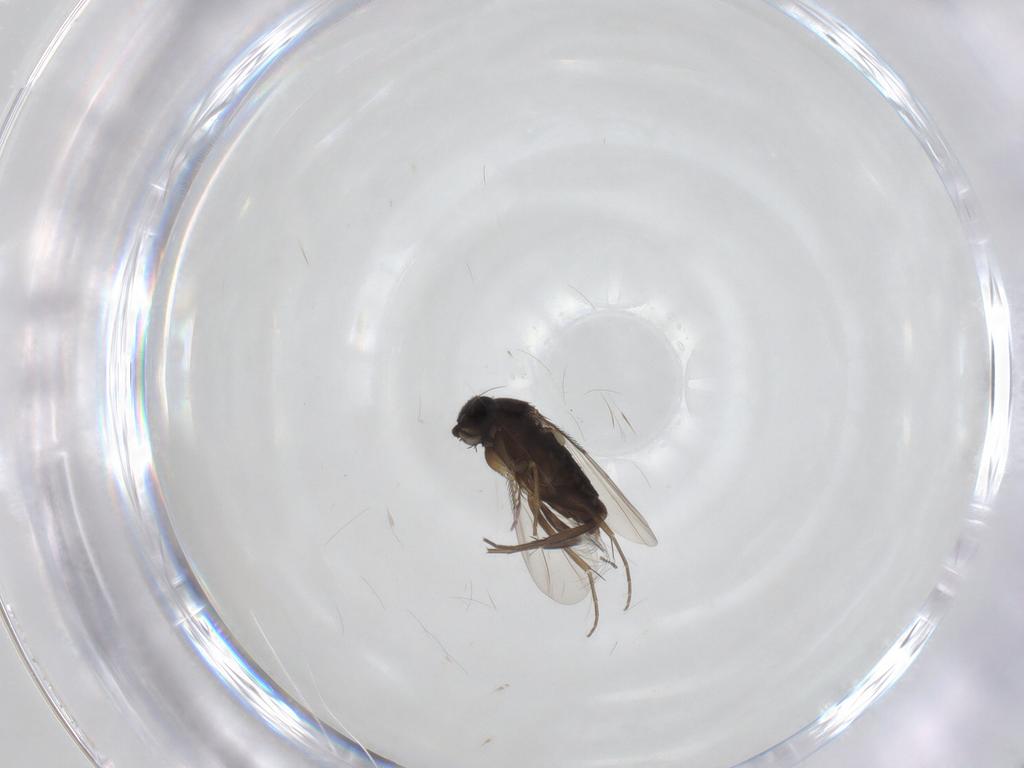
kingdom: Animalia
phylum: Arthropoda
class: Insecta
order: Diptera
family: Phoridae
